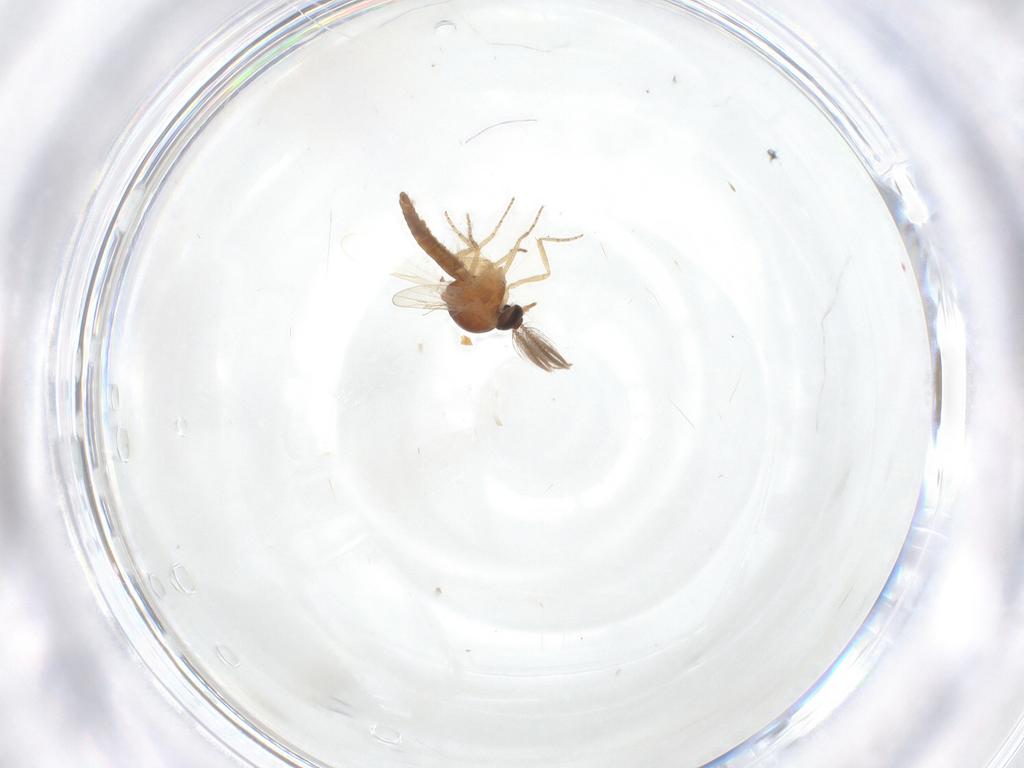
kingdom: Animalia
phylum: Arthropoda
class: Insecta
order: Diptera
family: Ceratopogonidae
